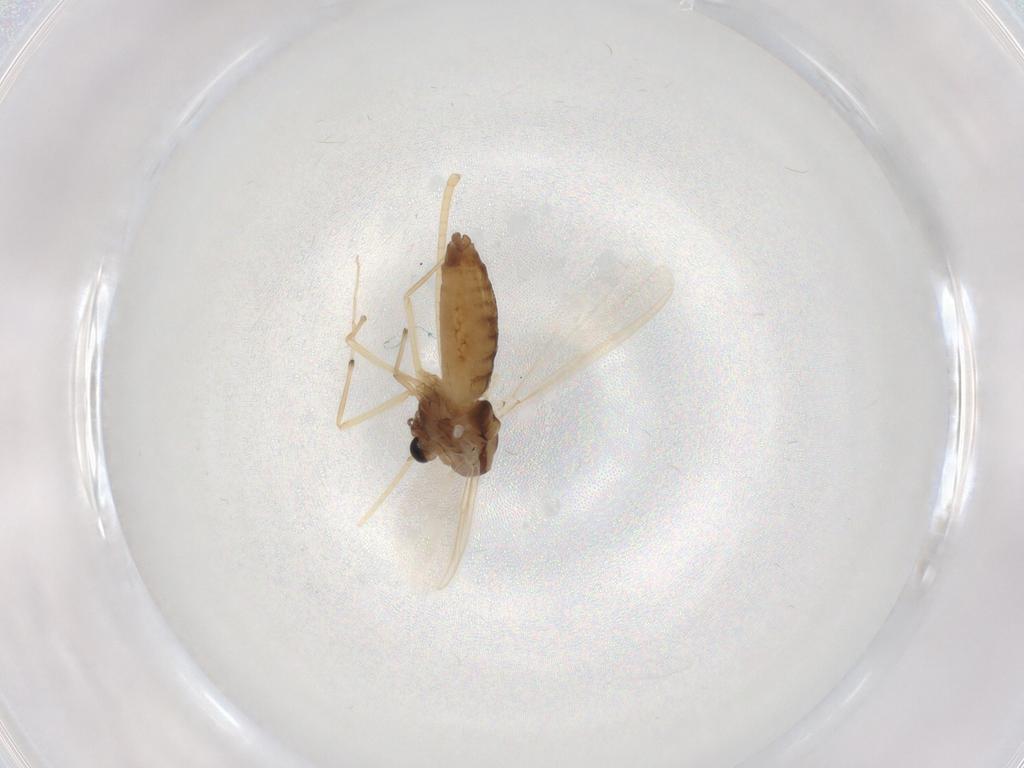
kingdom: Animalia
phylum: Arthropoda
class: Insecta
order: Diptera
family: Chironomidae
